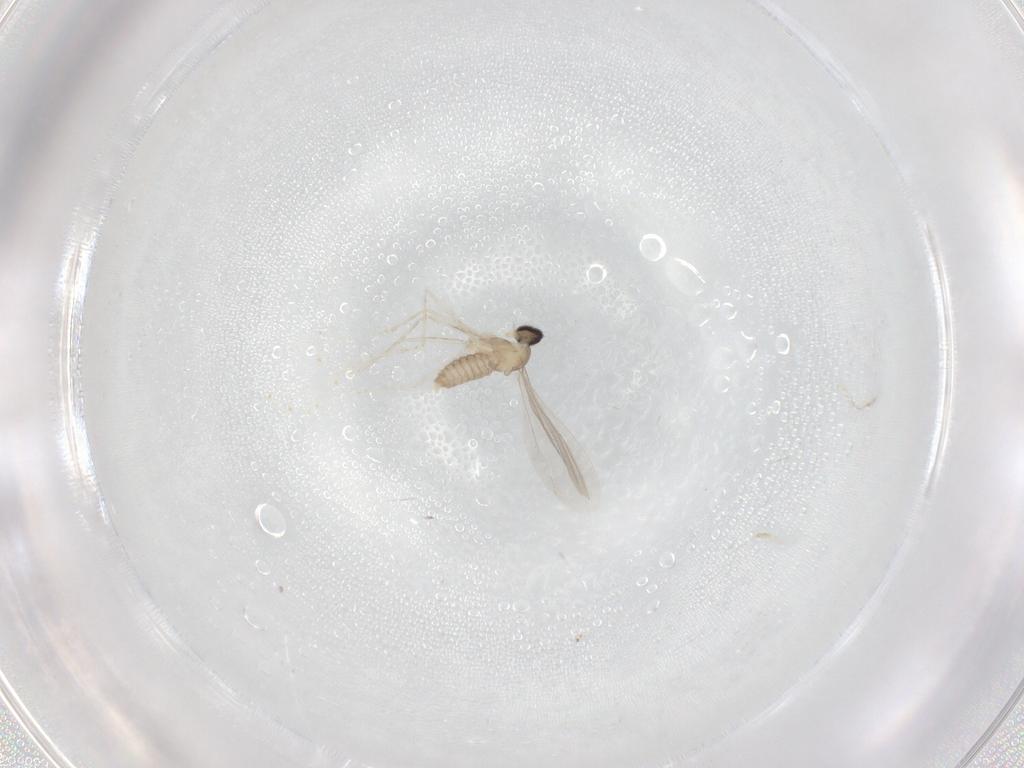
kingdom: Animalia
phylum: Arthropoda
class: Insecta
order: Diptera
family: Cecidomyiidae
